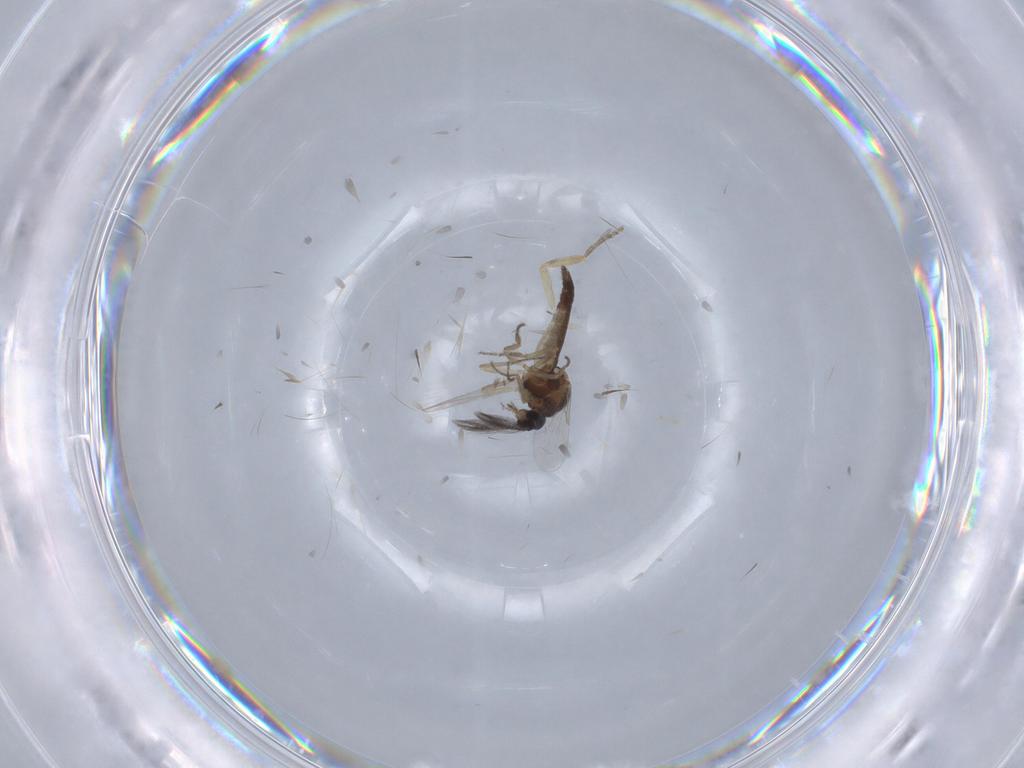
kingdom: Animalia
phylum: Arthropoda
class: Insecta
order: Diptera
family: Ceratopogonidae
